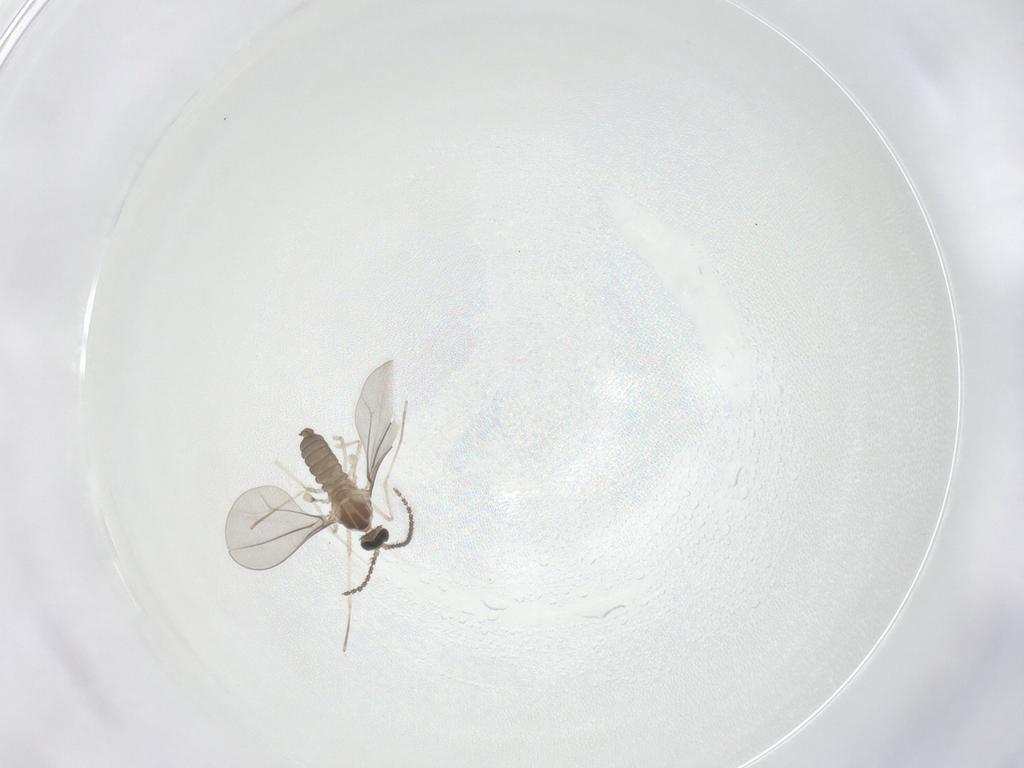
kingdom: Animalia
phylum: Arthropoda
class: Insecta
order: Diptera
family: Cecidomyiidae
